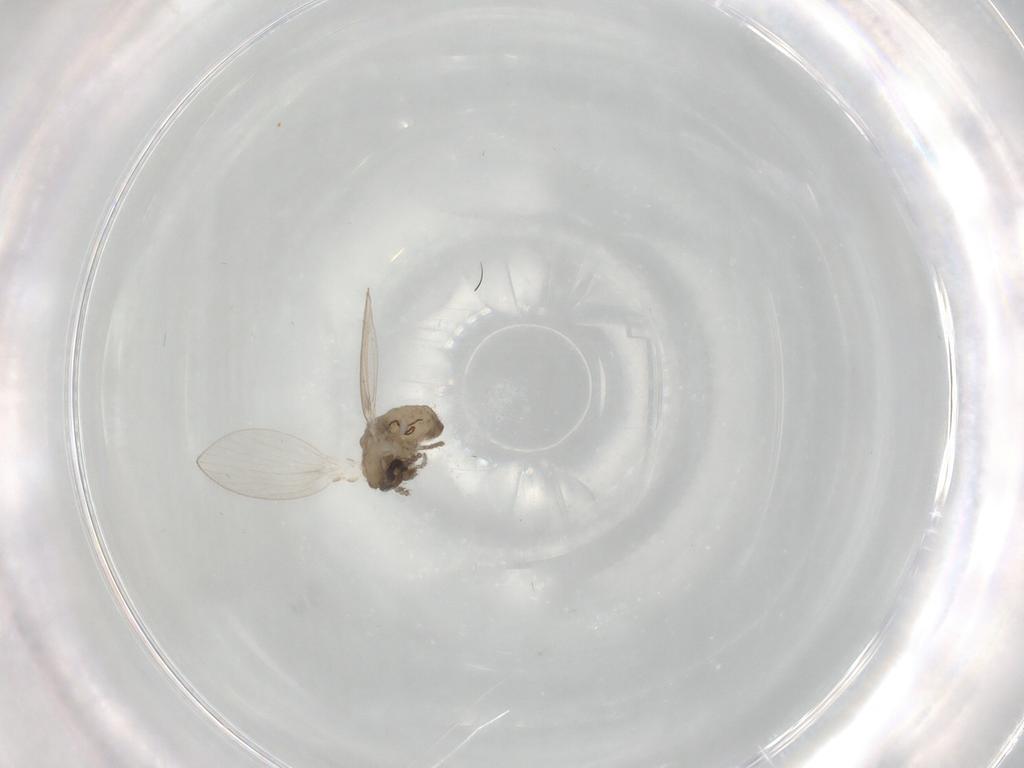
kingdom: Animalia
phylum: Arthropoda
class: Insecta
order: Diptera
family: Psychodidae
